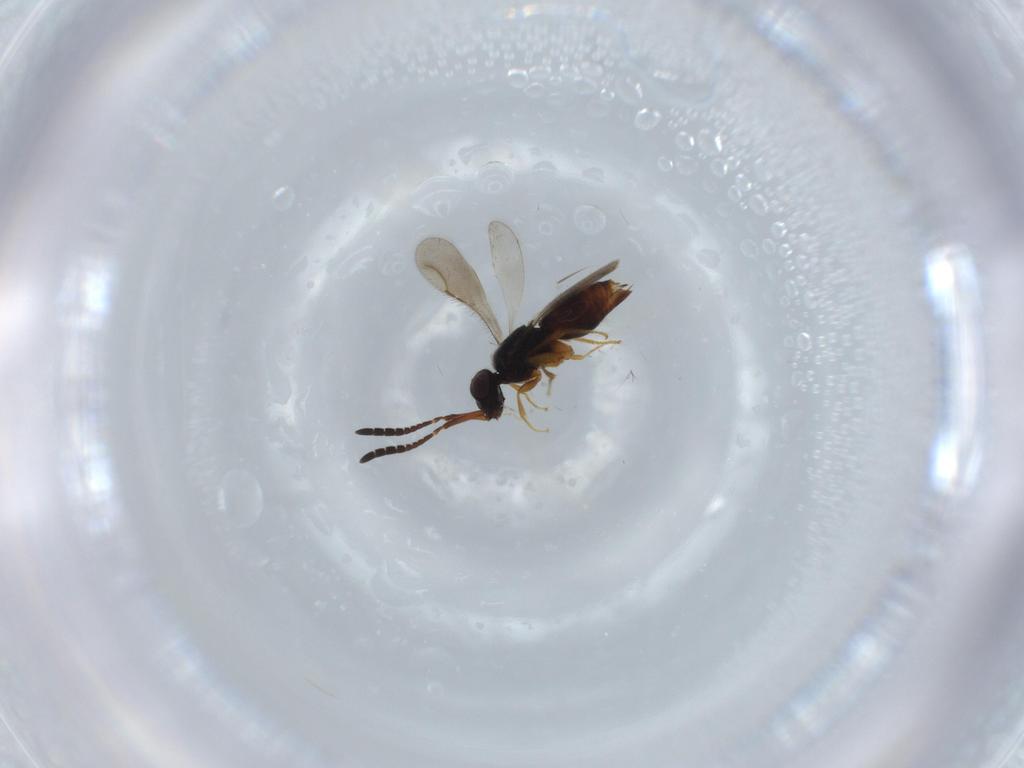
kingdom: Animalia
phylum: Arthropoda
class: Insecta
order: Hymenoptera
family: Ceraphronidae
